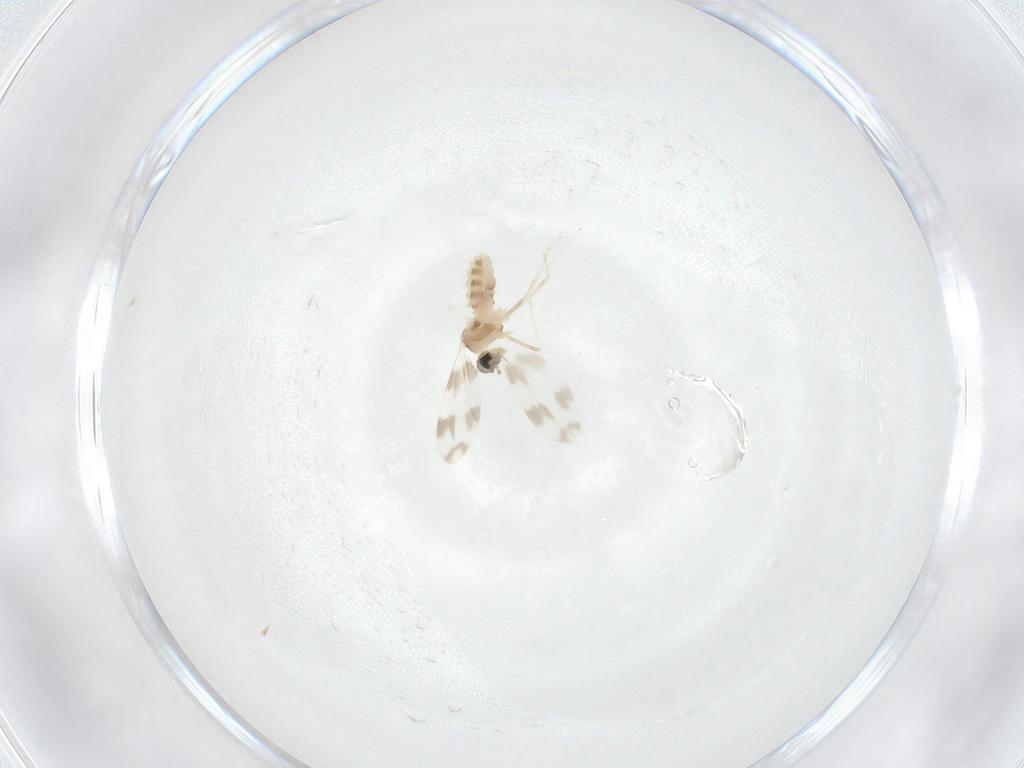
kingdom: Animalia
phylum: Arthropoda
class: Insecta
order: Diptera
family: Cecidomyiidae
